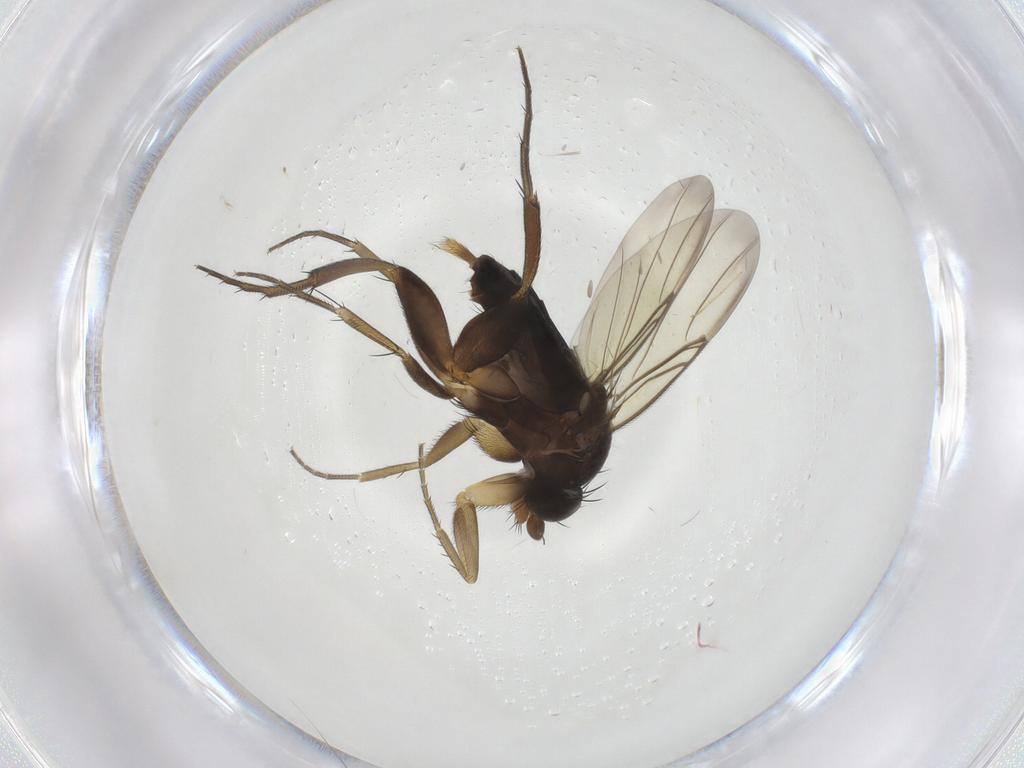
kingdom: Animalia
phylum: Arthropoda
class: Insecta
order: Diptera
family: Phoridae
